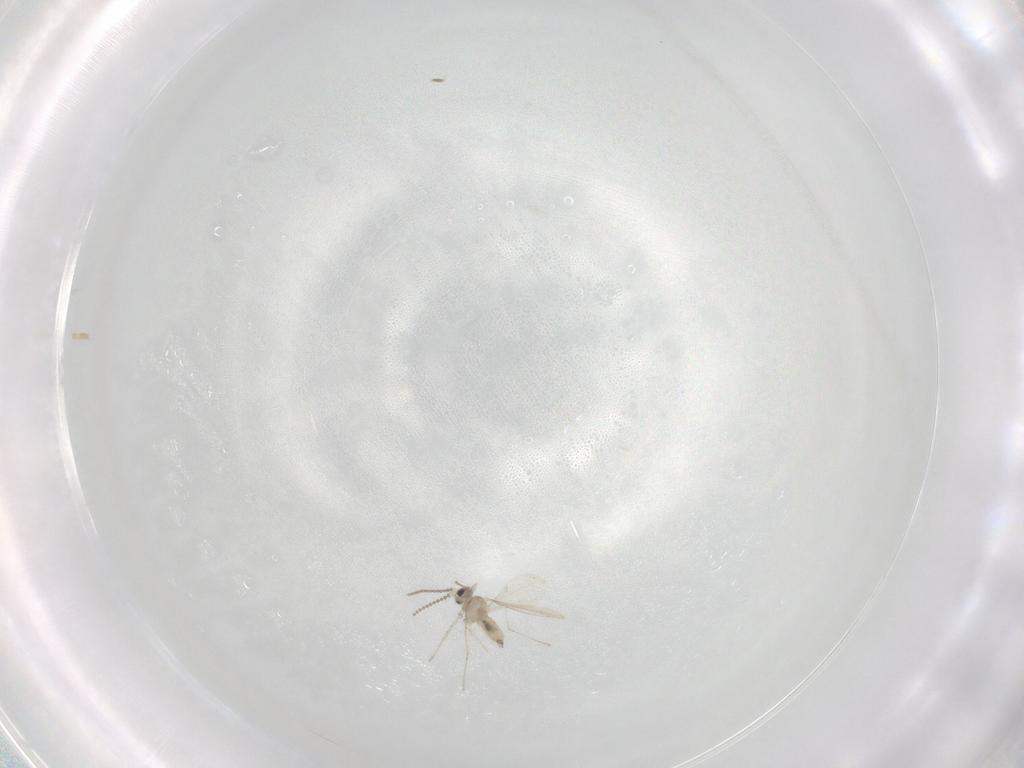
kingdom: Animalia
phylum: Arthropoda
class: Insecta
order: Diptera
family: Cecidomyiidae
